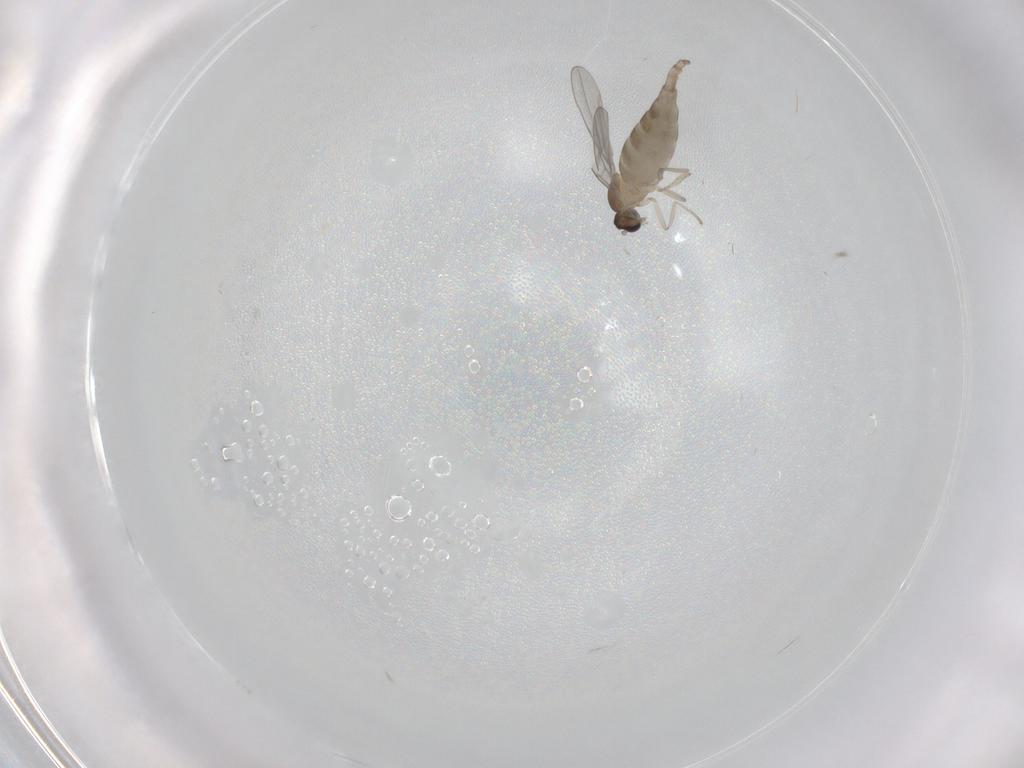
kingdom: Animalia
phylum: Arthropoda
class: Insecta
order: Diptera
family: Cecidomyiidae
